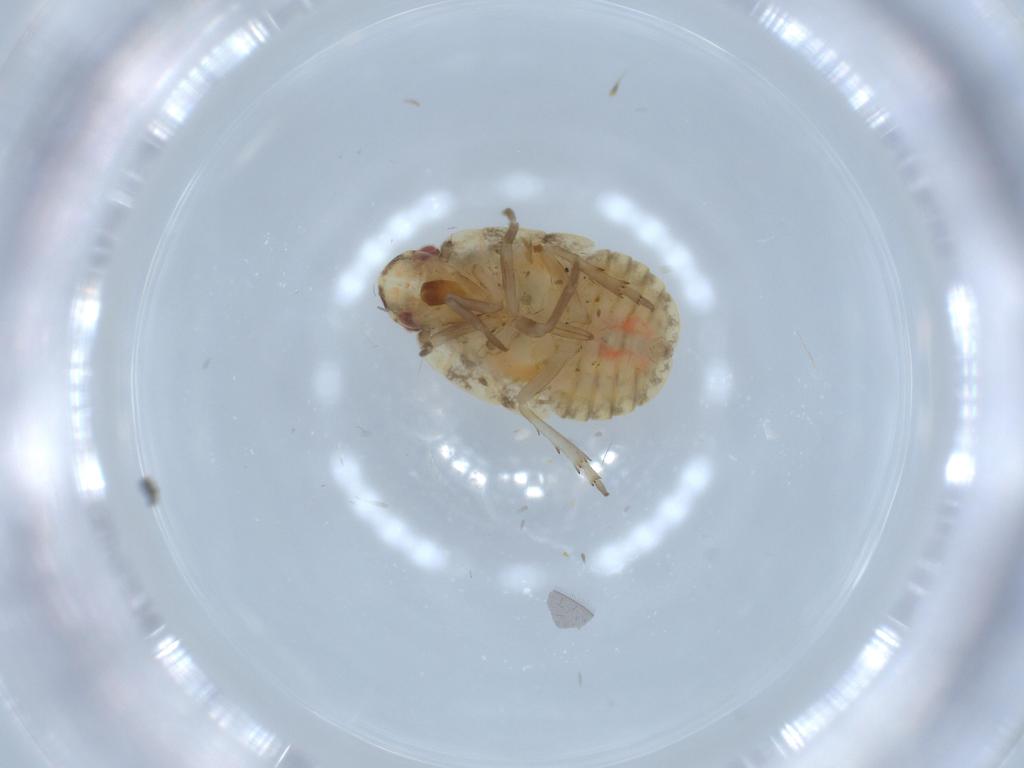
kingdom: Animalia
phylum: Arthropoda
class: Insecta
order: Hemiptera
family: Flatidae
